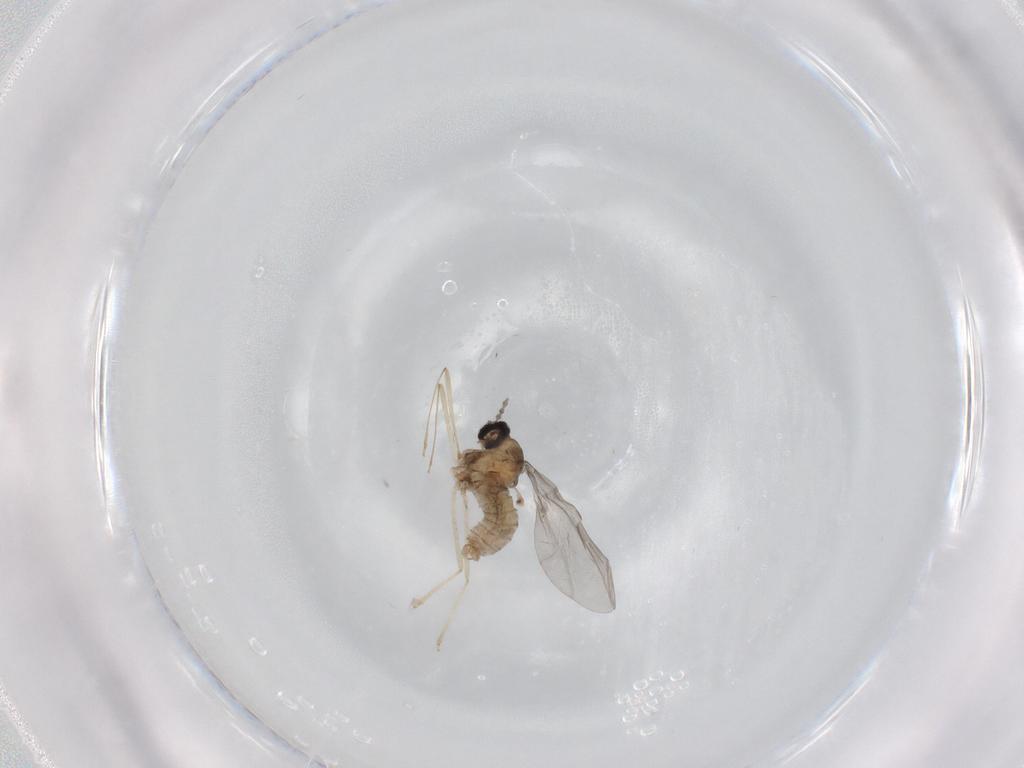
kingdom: Animalia
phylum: Arthropoda
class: Insecta
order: Diptera
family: Cecidomyiidae
